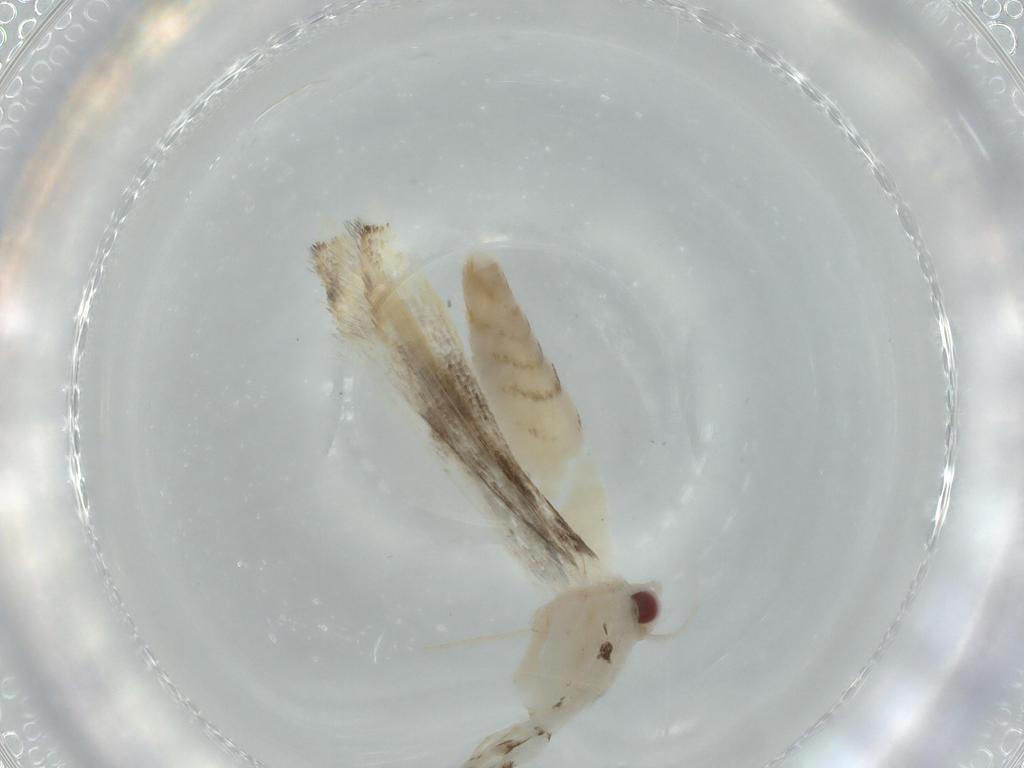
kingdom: Animalia
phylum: Arthropoda
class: Insecta
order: Lepidoptera
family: Gracillariidae
